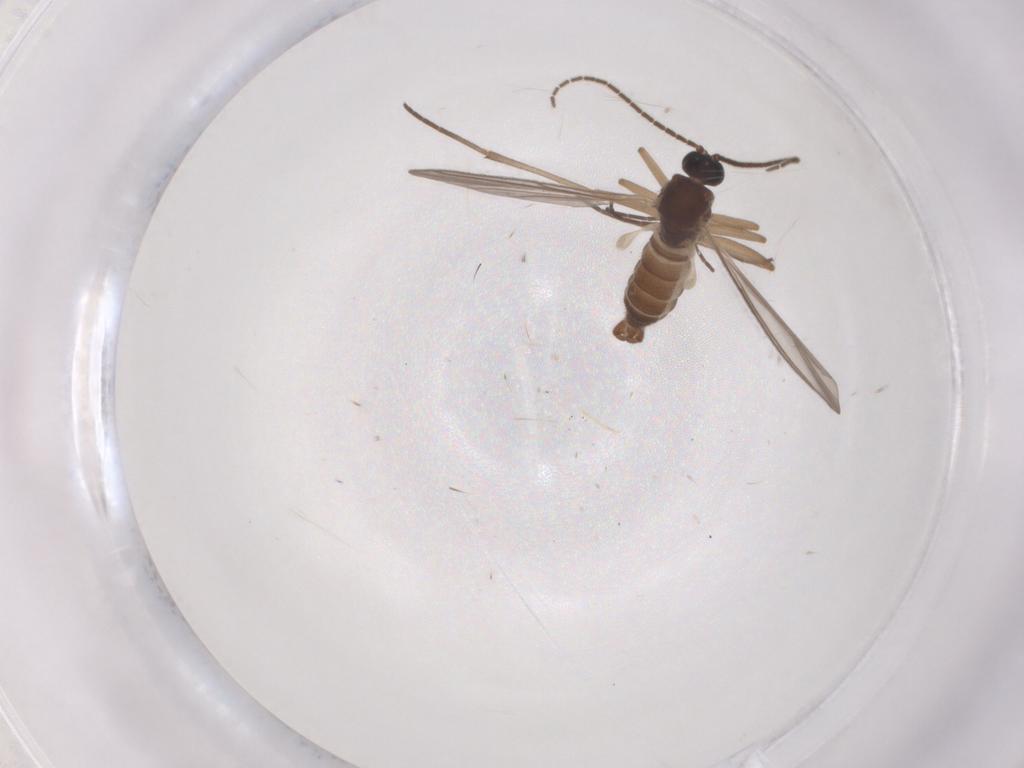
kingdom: Animalia
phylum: Arthropoda
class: Insecta
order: Diptera
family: Sciaridae
